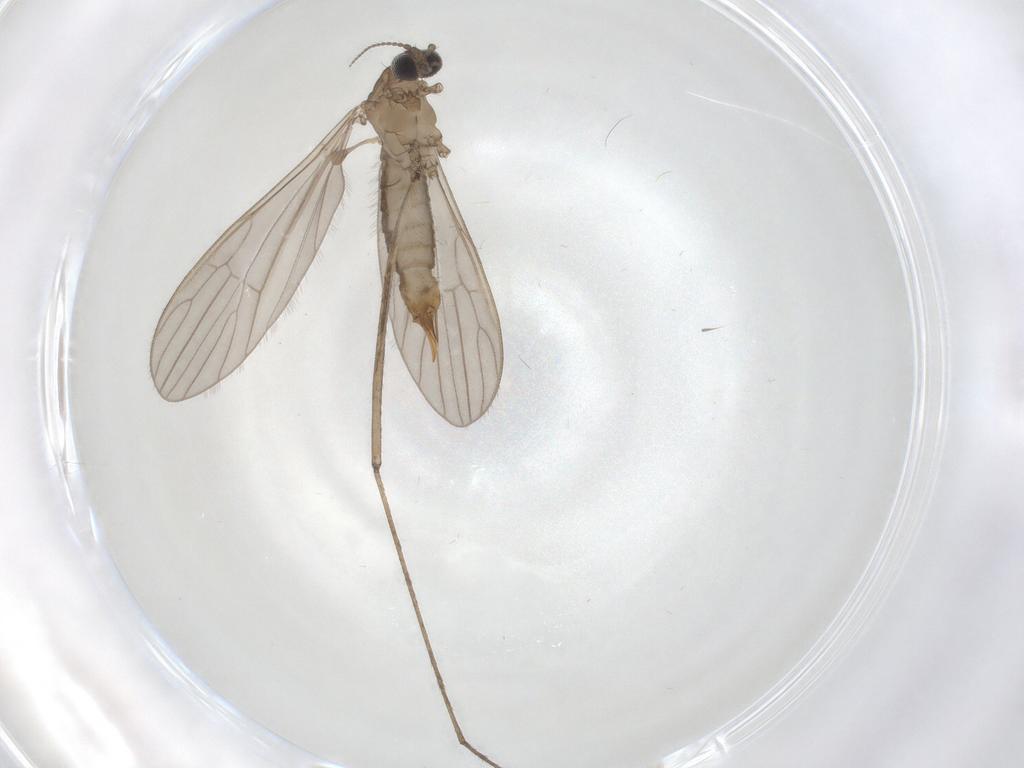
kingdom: Animalia
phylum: Arthropoda
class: Insecta
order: Diptera
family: Limoniidae
